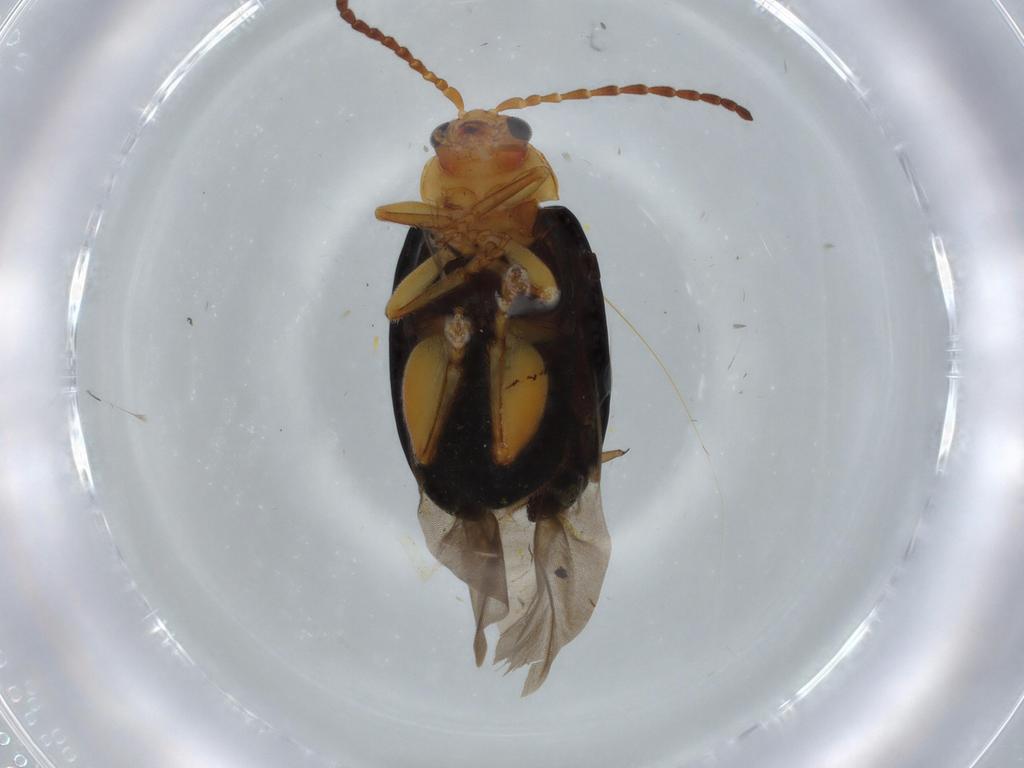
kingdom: Animalia
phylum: Arthropoda
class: Insecta
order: Coleoptera
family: Chrysomelidae
